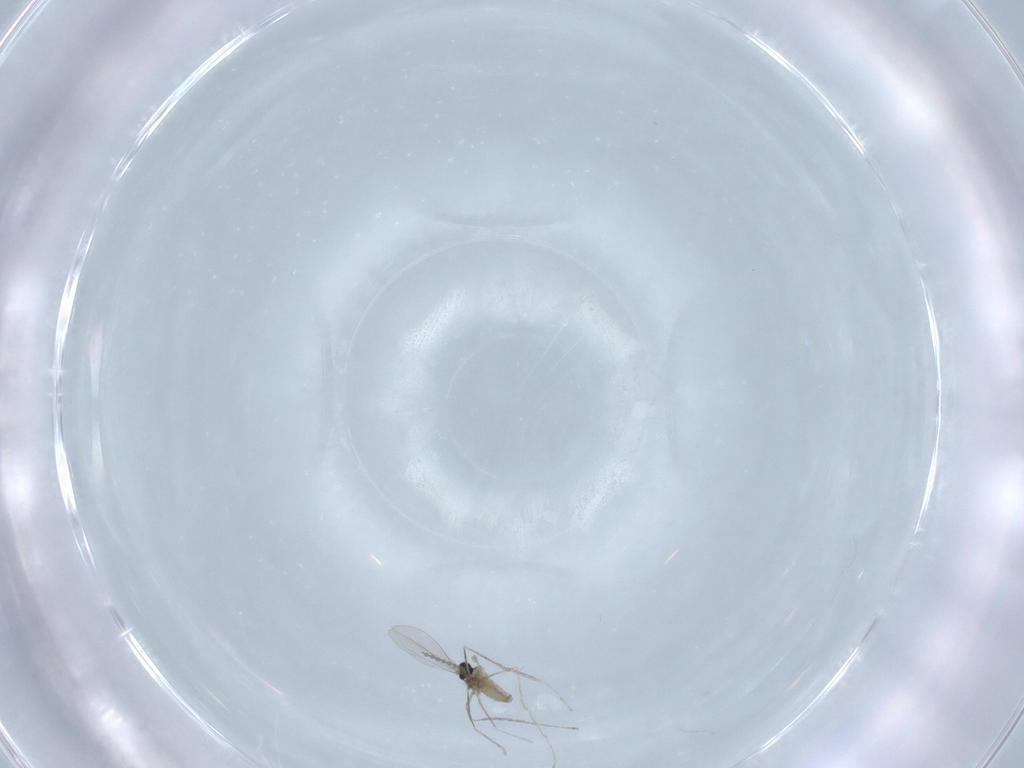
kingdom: Animalia
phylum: Arthropoda
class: Insecta
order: Diptera
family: Cecidomyiidae
